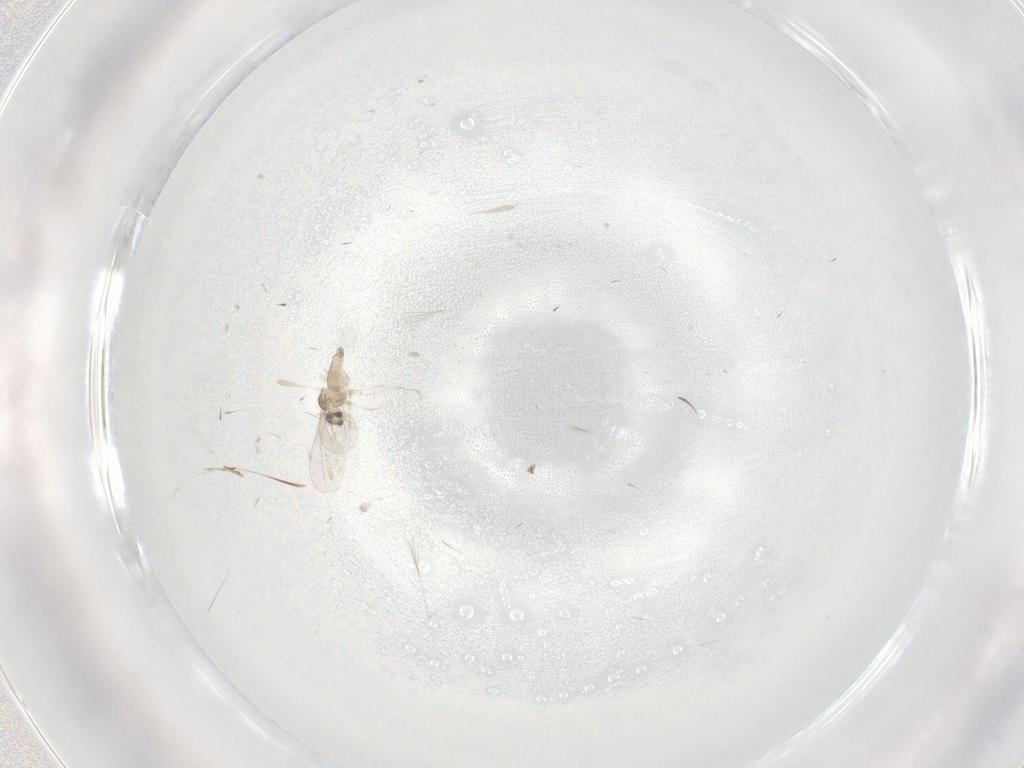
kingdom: Animalia
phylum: Arthropoda
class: Insecta
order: Diptera
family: Cecidomyiidae
